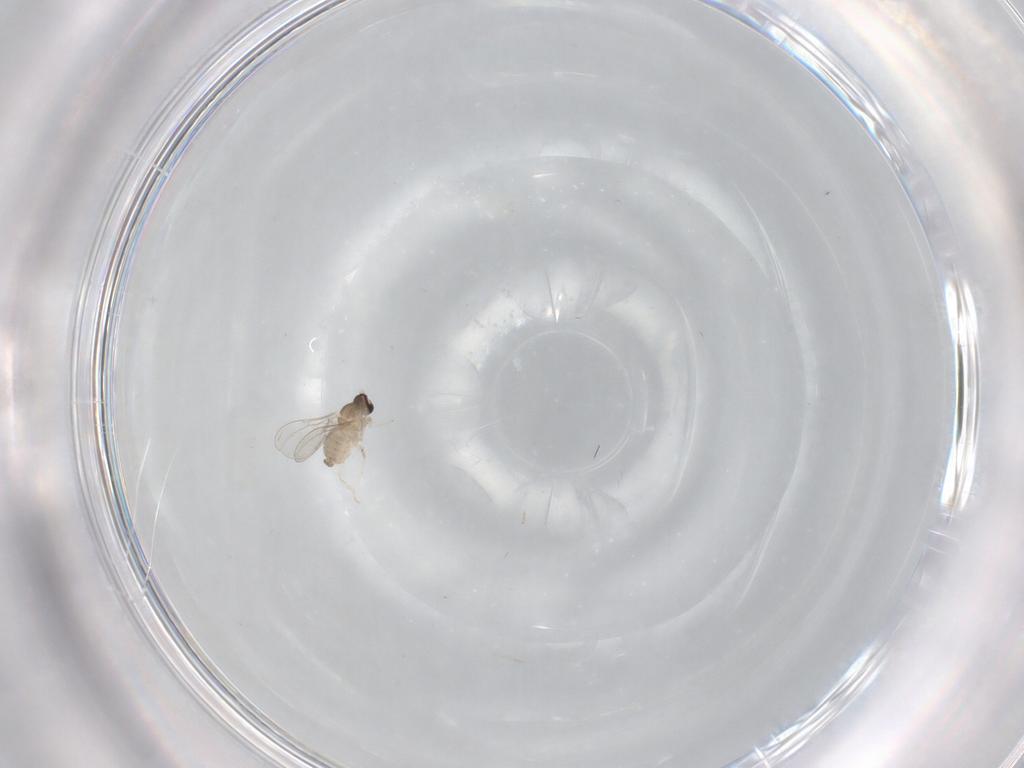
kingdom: Animalia
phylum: Arthropoda
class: Insecta
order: Diptera
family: Cecidomyiidae
